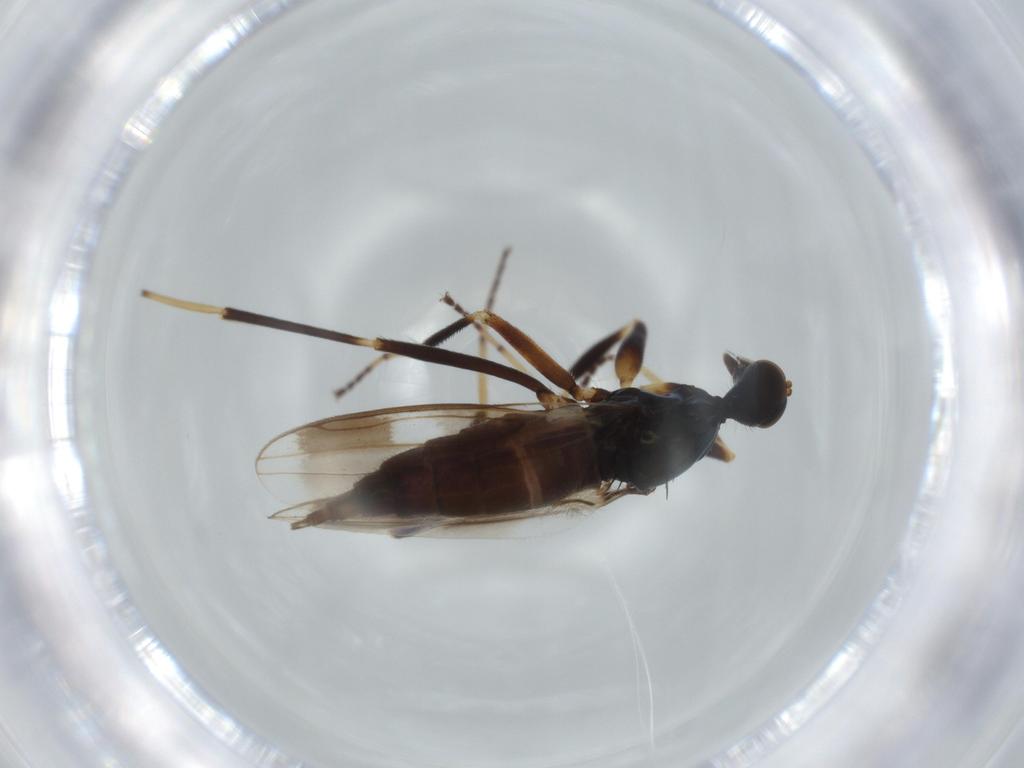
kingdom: Animalia
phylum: Arthropoda
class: Insecta
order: Diptera
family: Hybotidae
